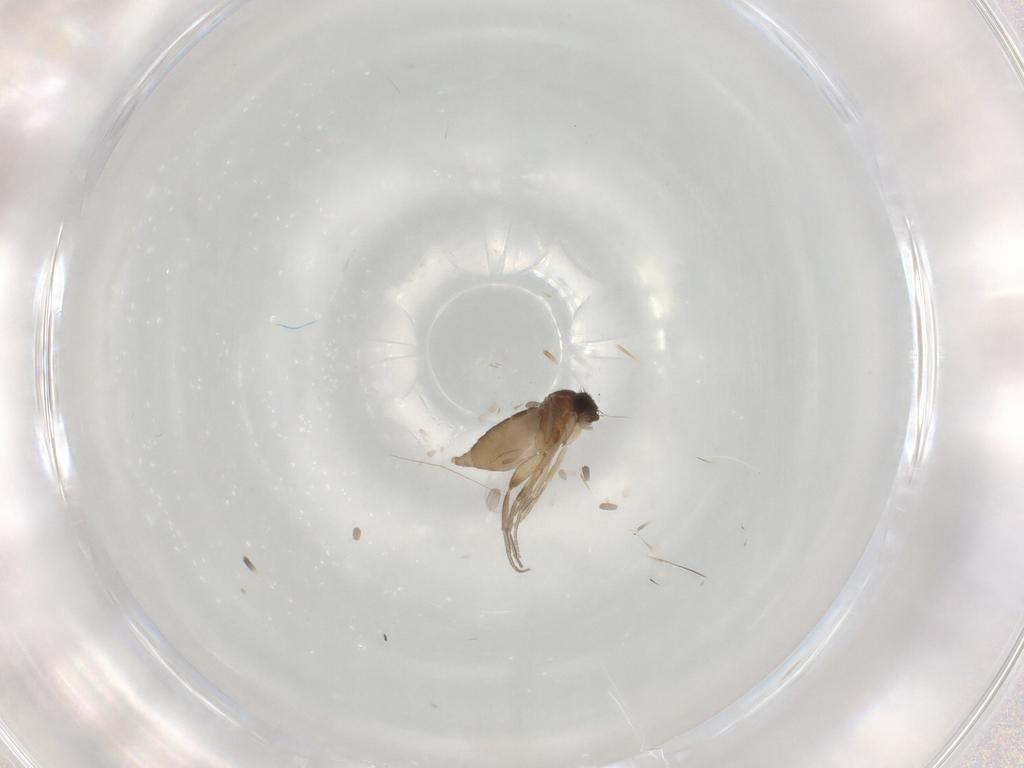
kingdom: Animalia
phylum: Arthropoda
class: Insecta
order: Diptera
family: Phoridae
